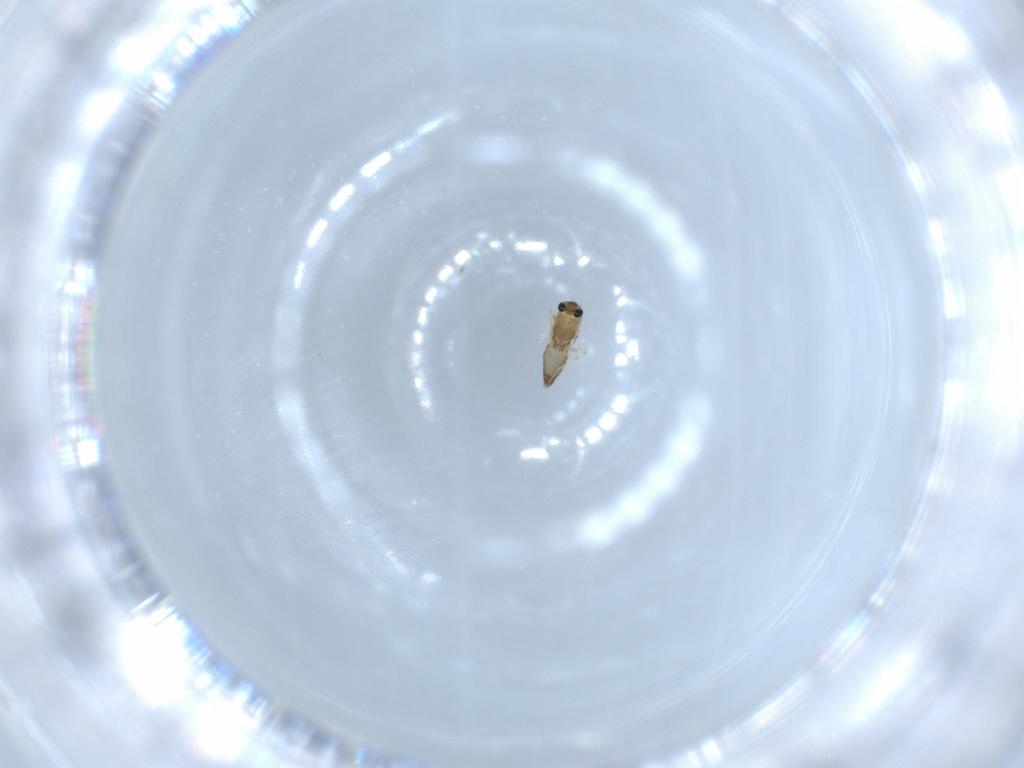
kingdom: Animalia
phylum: Arthropoda
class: Insecta
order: Diptera
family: Chironomidae
